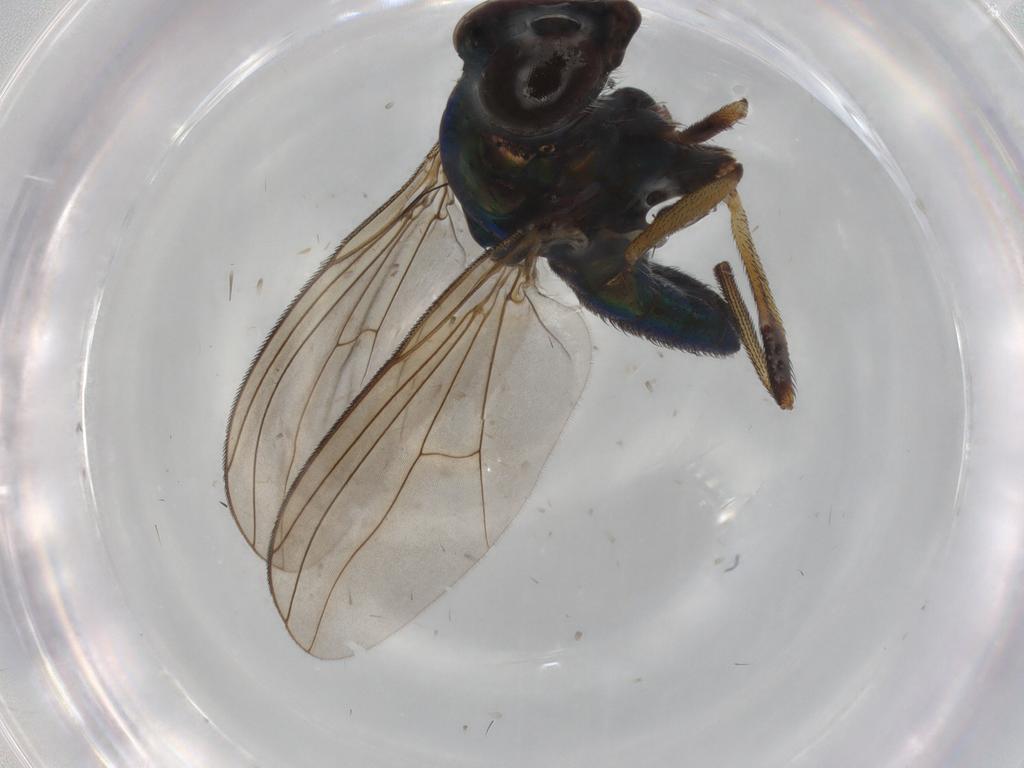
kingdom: Animalia
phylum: Arthropoda
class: Insecta
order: Diptera
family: Dolichopodidae
